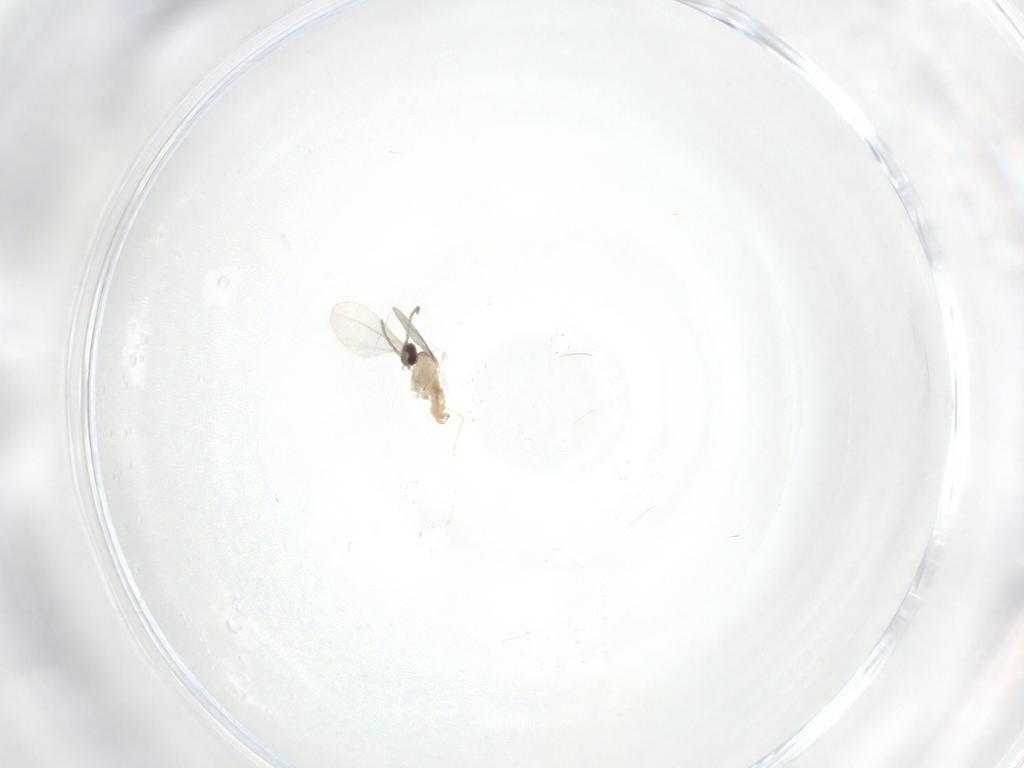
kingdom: Animalia
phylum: Arthropoda
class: Insecta
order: Diptera
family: Cecidomyiidae
